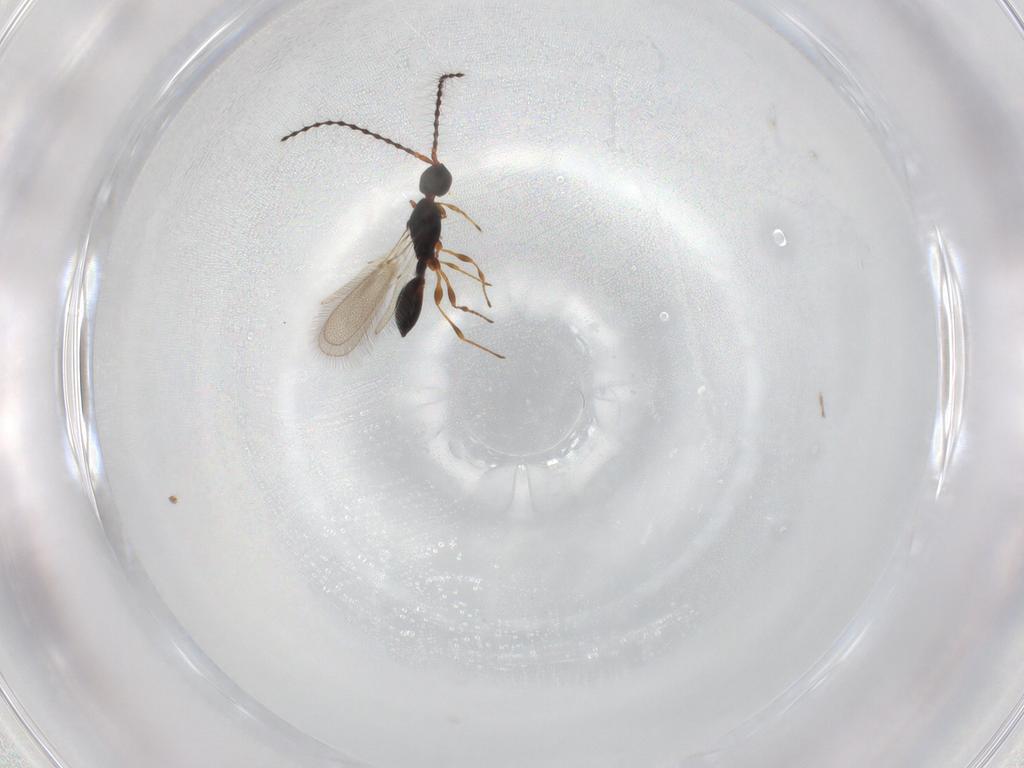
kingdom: Animalia
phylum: Arthropoda
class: Insecta
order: Hymenoptera
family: Diapriidae
